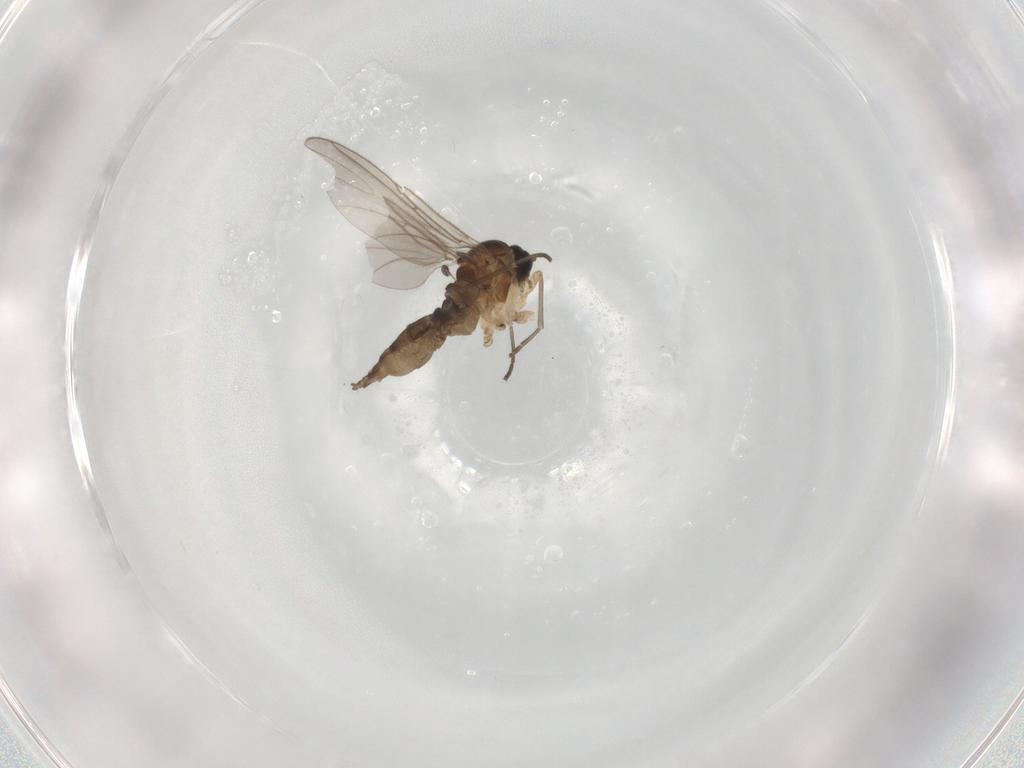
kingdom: Animalia
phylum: Arthropoda
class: Insecta
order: Diptera
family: Sciaridae
